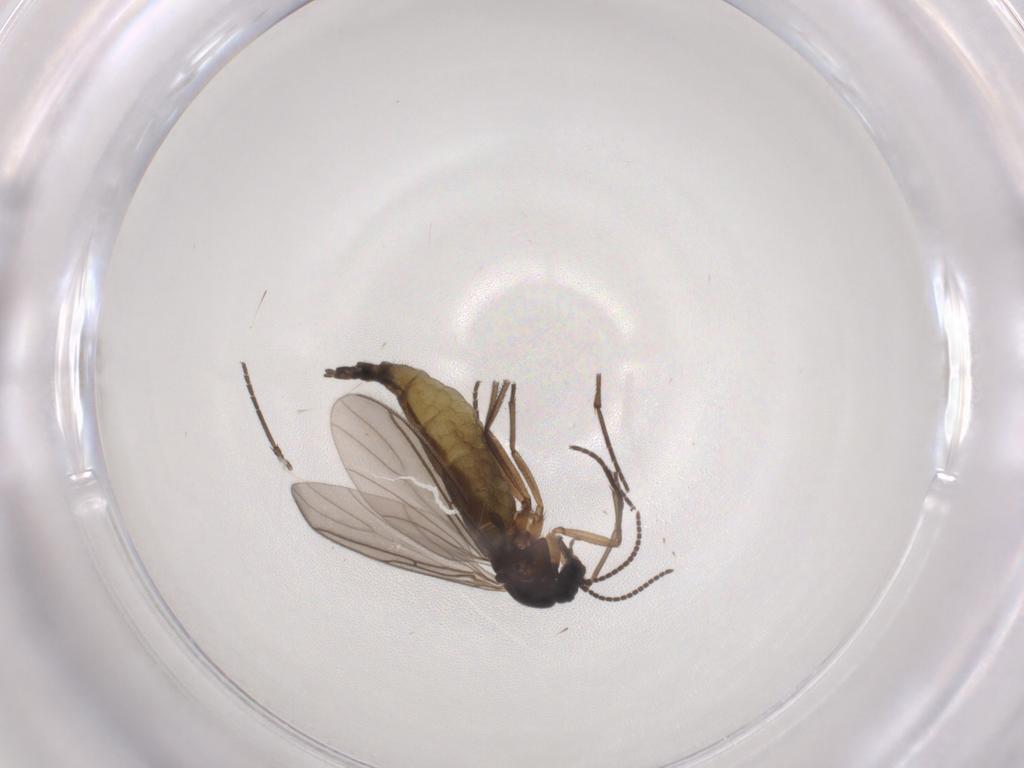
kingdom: Animalia
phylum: Arthropoda
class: Insecta
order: Diptera
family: Sciaridae
